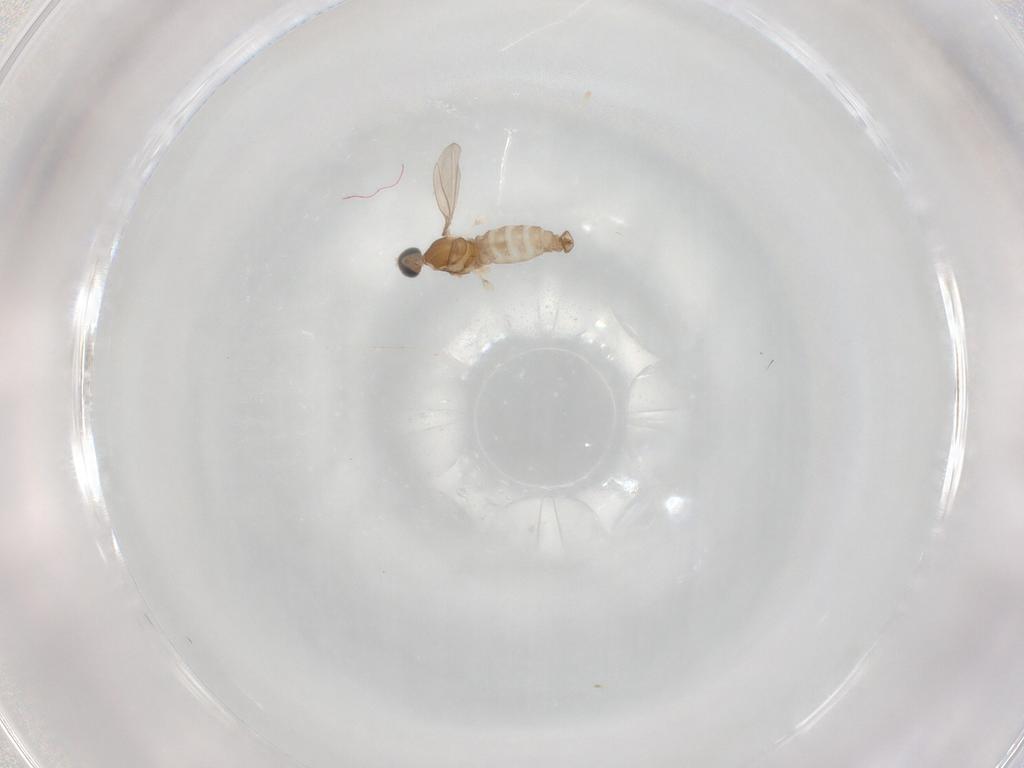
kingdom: Animalia
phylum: Arthropoda
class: Insecta
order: Diptera
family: Cecidomyiidae
